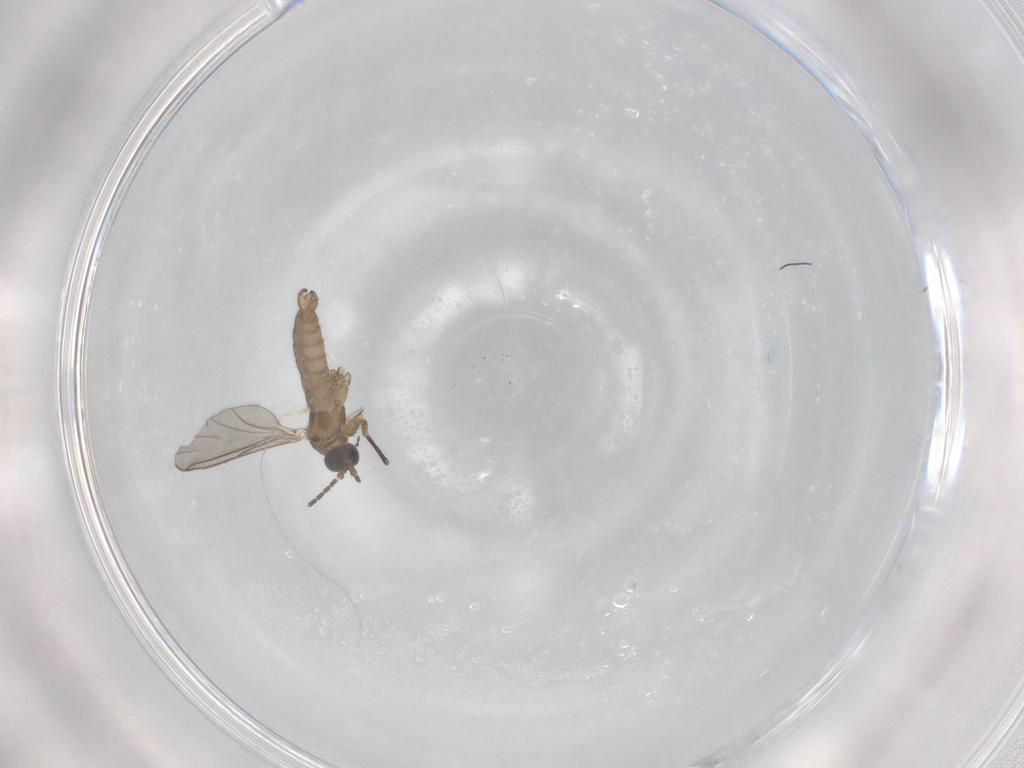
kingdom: Animalia
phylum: Arthropoda
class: Insecta
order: Diptera
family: Sciaridae
